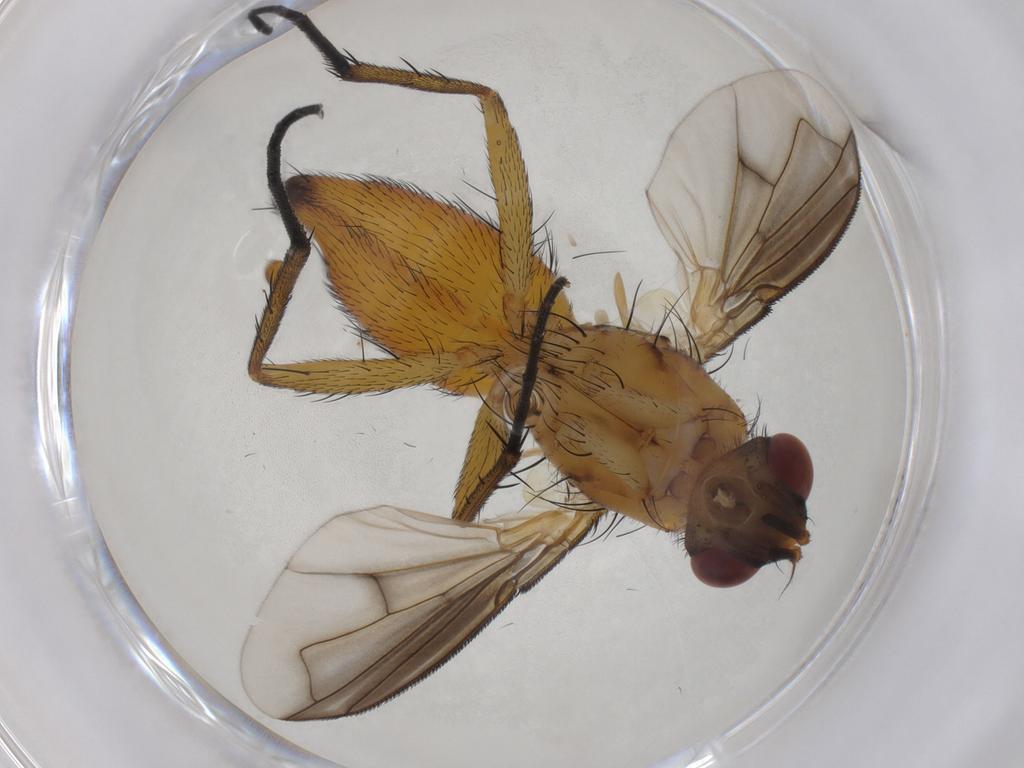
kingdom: Animalia
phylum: Arthropoda
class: Insecta
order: Diptera
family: Tachinidae
